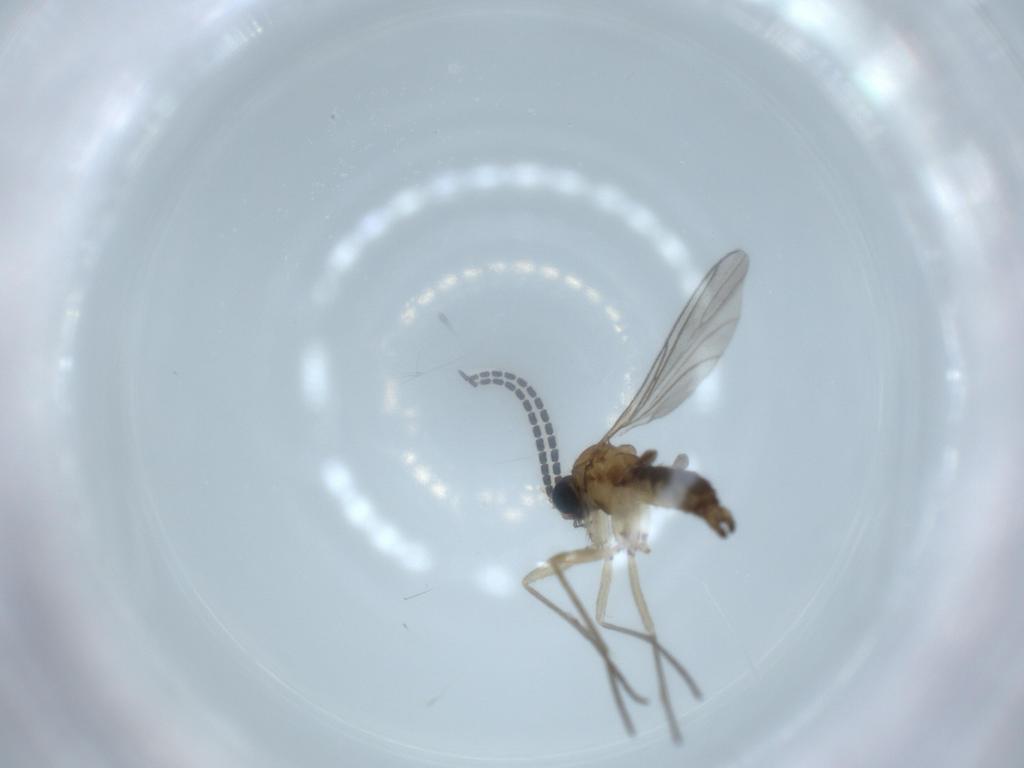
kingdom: Animalia
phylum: Arthropoda
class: Insecta
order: Diptera
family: Sciaridae
